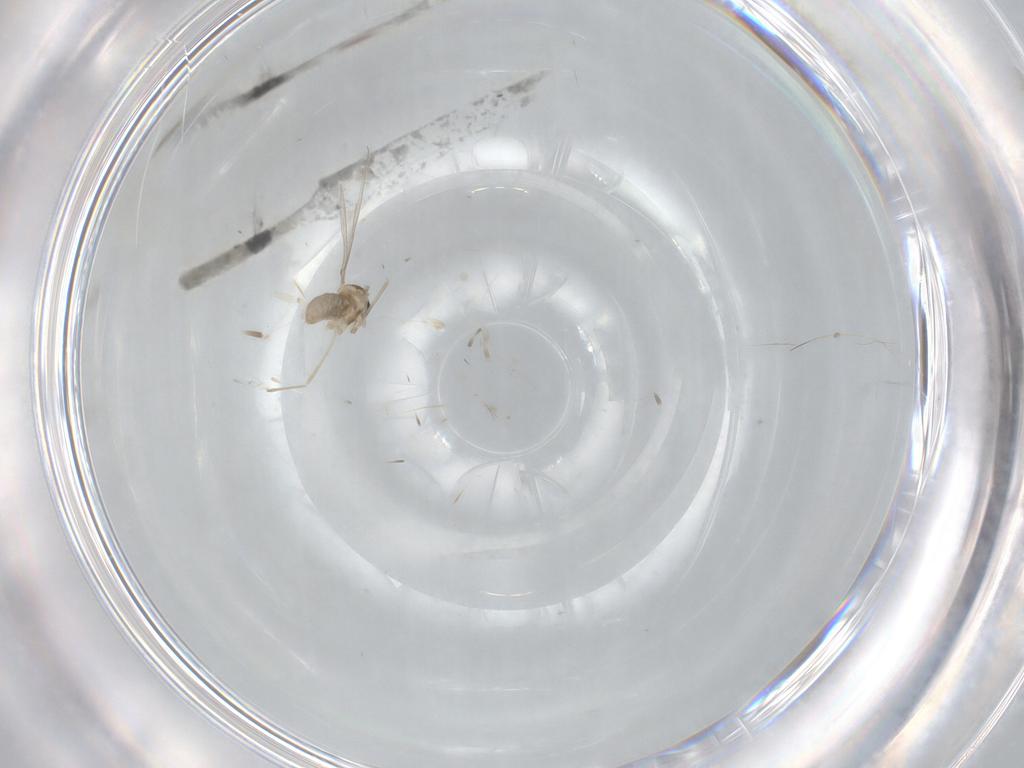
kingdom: Animalia
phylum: Arthropoda
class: Insecta
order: Diptera
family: Cecidomyiidae
